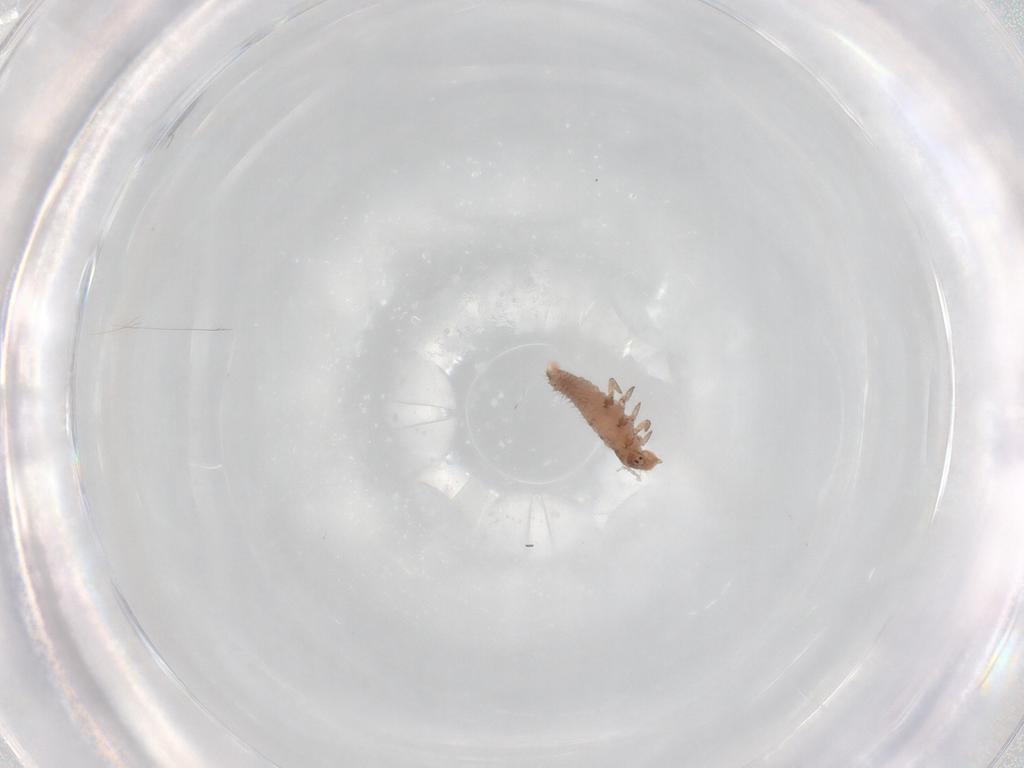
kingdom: Animalia
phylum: Arthropoda
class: Insecta
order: Coleoptera
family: Coccinellidae
